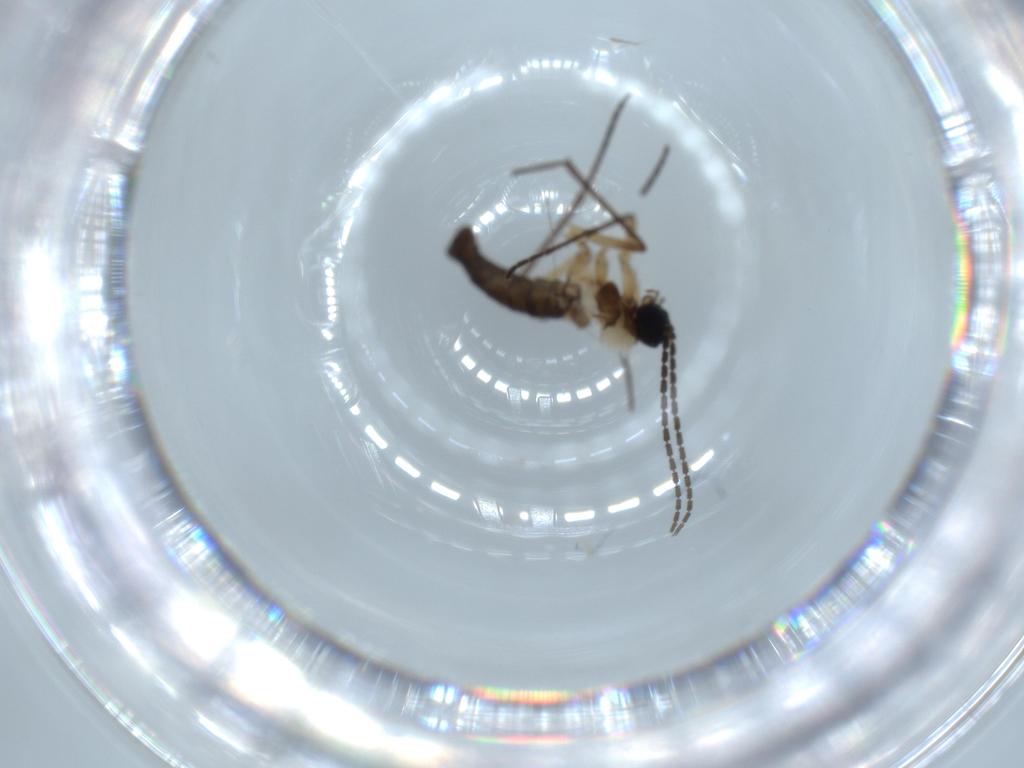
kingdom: Animalia
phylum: Arthropoda
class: Insecta
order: Diptera
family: Sciaridae
